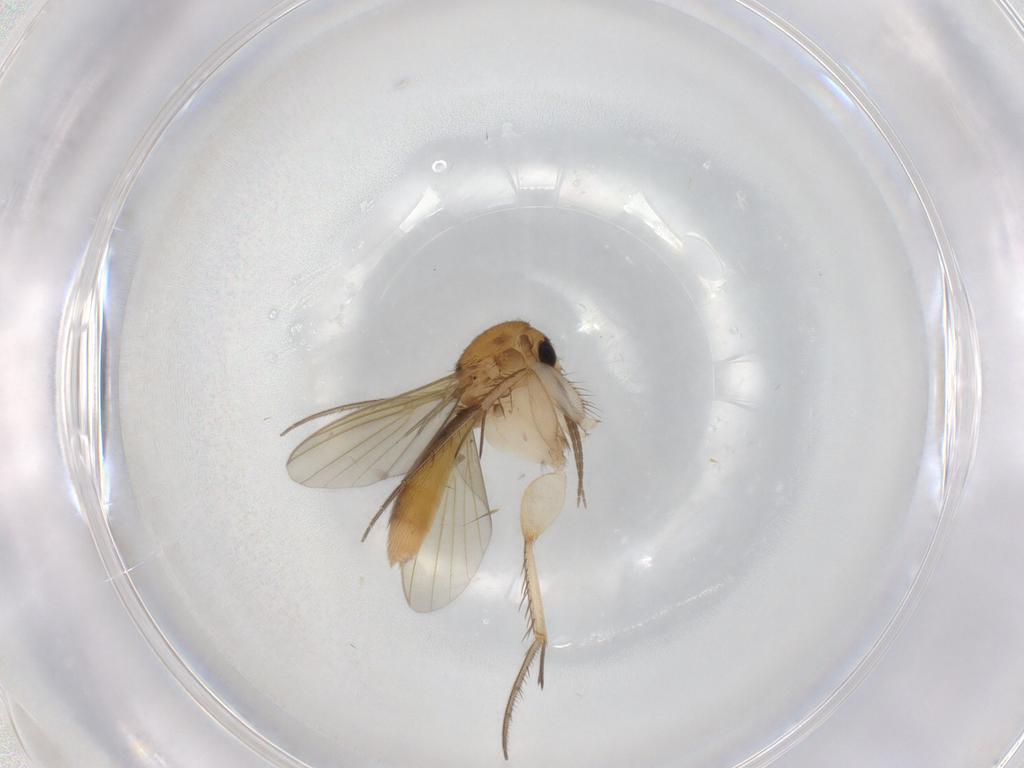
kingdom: Animalia
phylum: Arthropoda
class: Insecta
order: Diptera
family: Mycetophilidae
